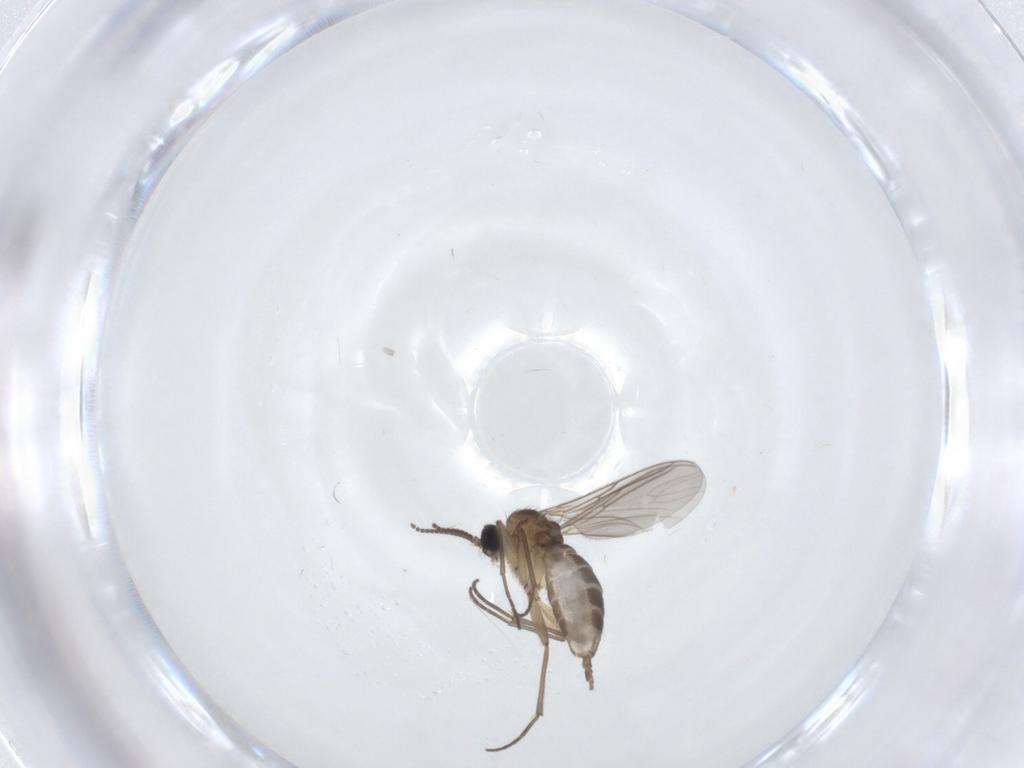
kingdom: Animalia
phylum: Arthropoda
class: Insecta
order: Diptera
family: Sciaridae
